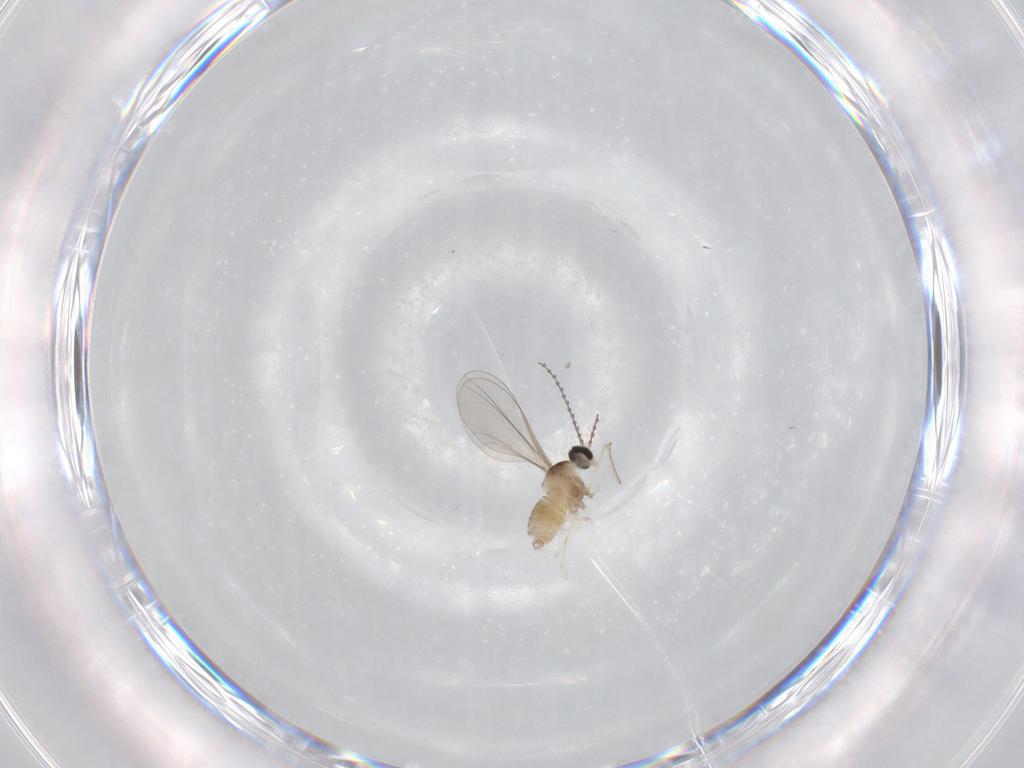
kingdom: Animalia
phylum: Arthropoda
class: Insecta
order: Diptera
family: Cecidomyiidae
